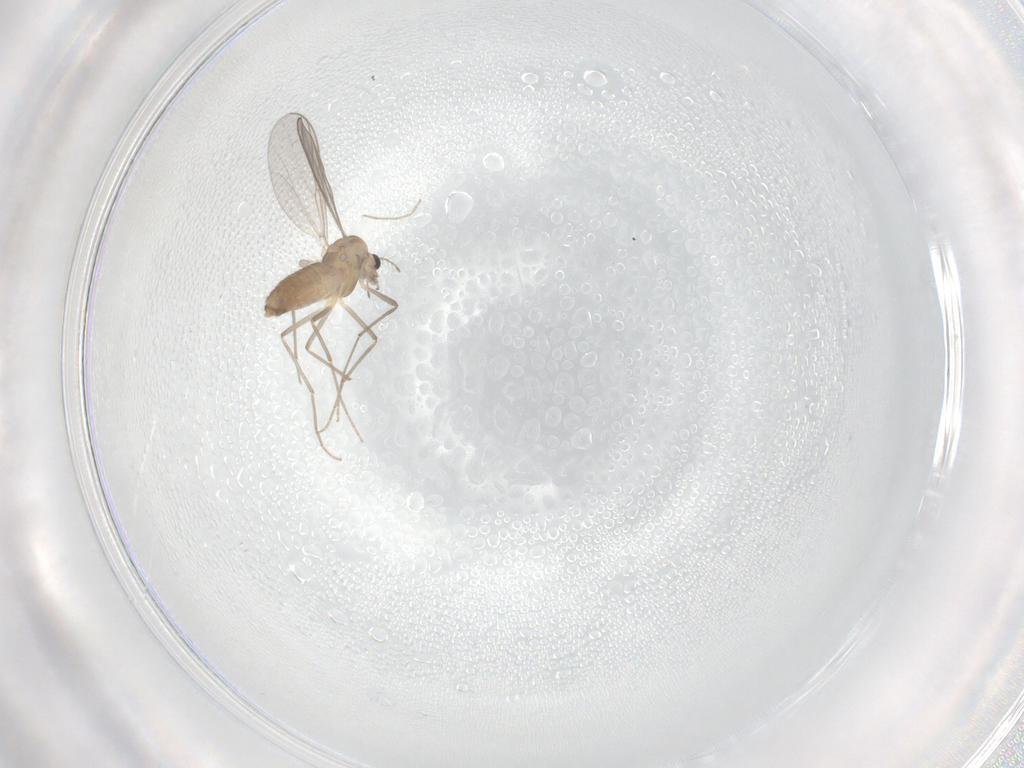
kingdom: Animalia
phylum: Arthropoda
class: Insecta
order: Diptera
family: Chironomidae
